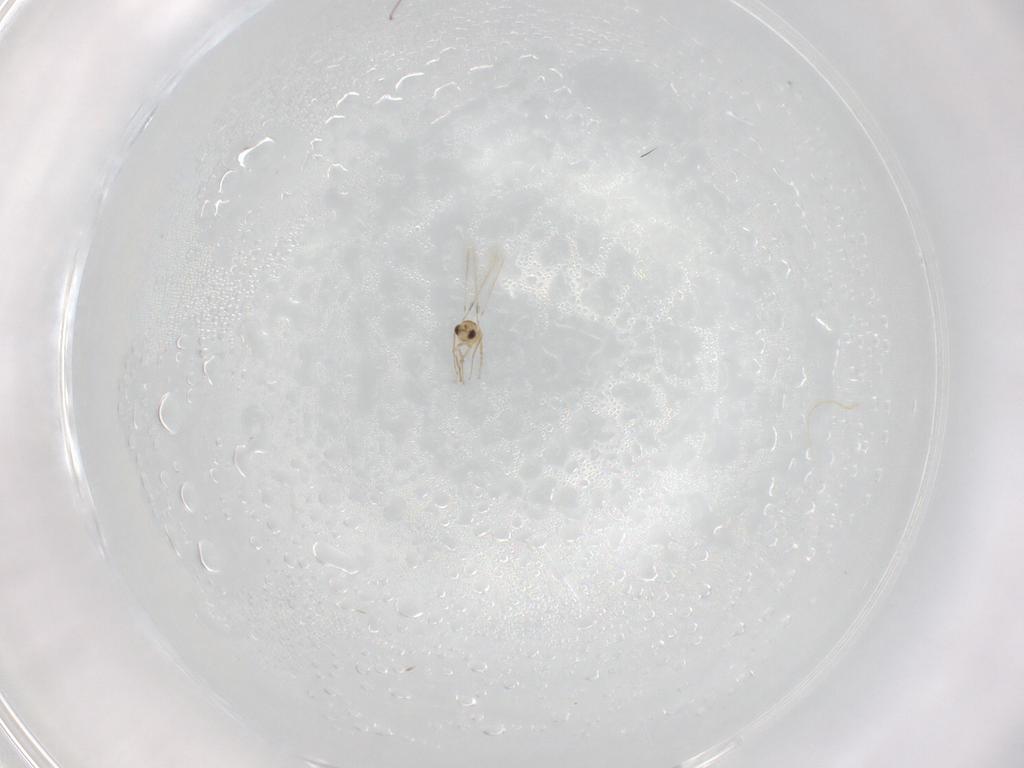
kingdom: Animalia
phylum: Arthropoda
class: Insecta
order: Hymenoptera
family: Mymaridae
